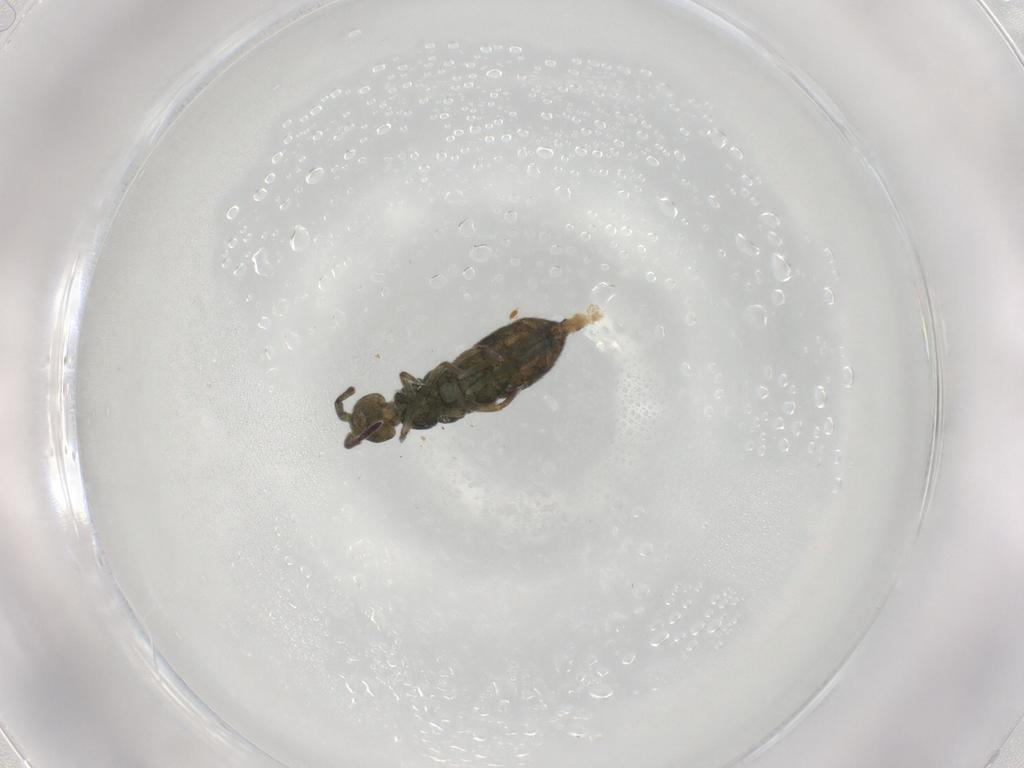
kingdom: Animalia
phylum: Arthropoda
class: Collembola
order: Entomobryomorpha
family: Isotomidae
